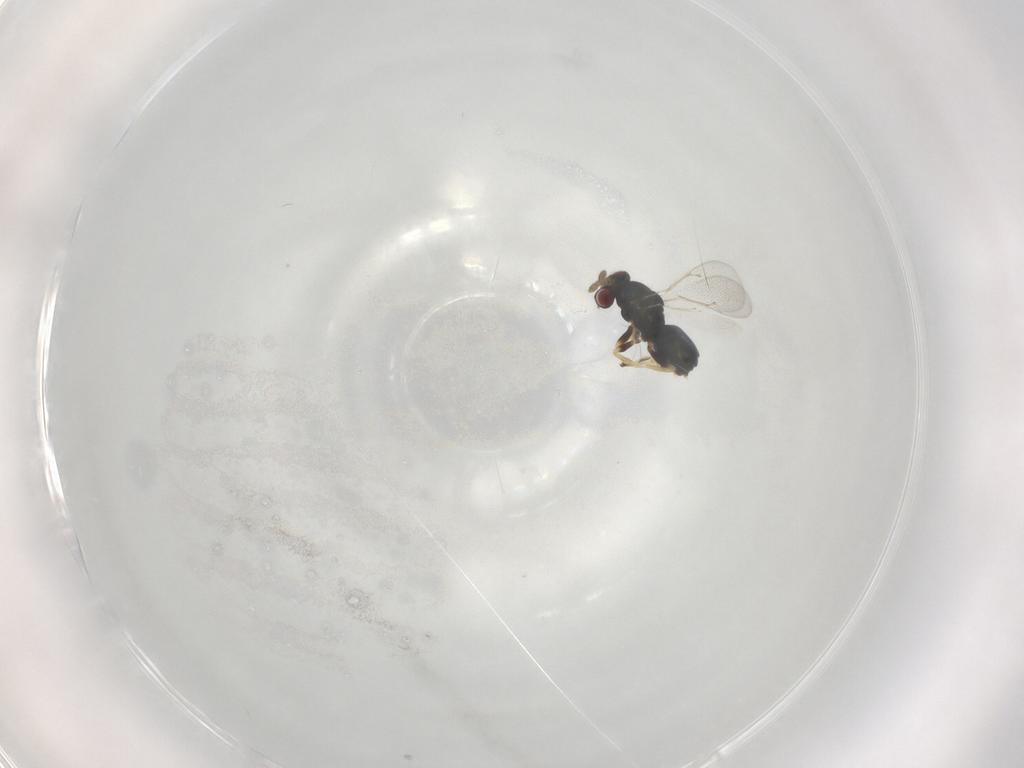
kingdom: Animalia
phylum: Arthropoda
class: Insecta
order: Hymenoptera
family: Eulophidae
